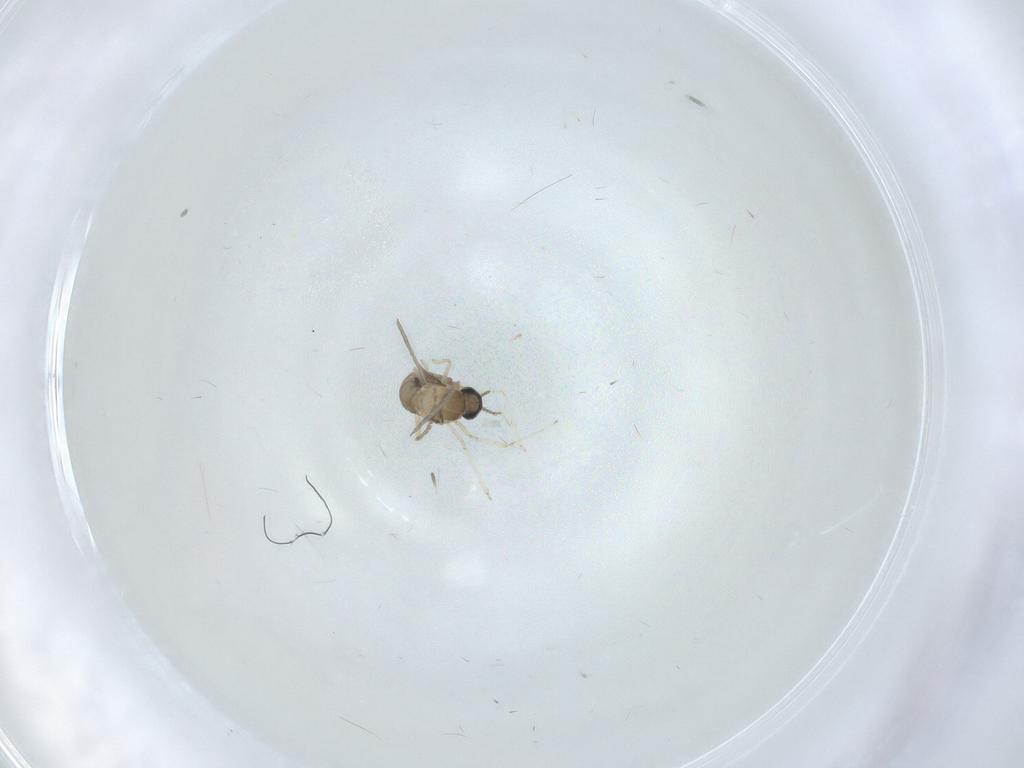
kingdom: Animalia
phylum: Arthropoda
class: Insecta
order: Diptera
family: Cecidomyiidae
